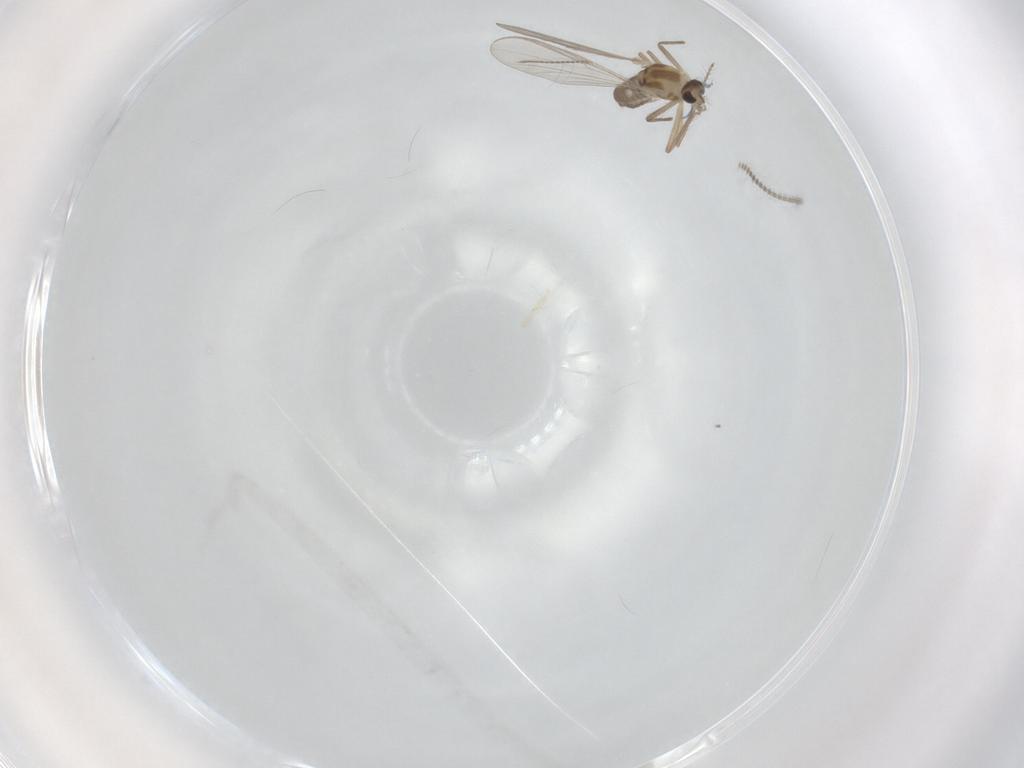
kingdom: Animalia
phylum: Arthropoda
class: Insecta
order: Diptera
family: Chironomidae
